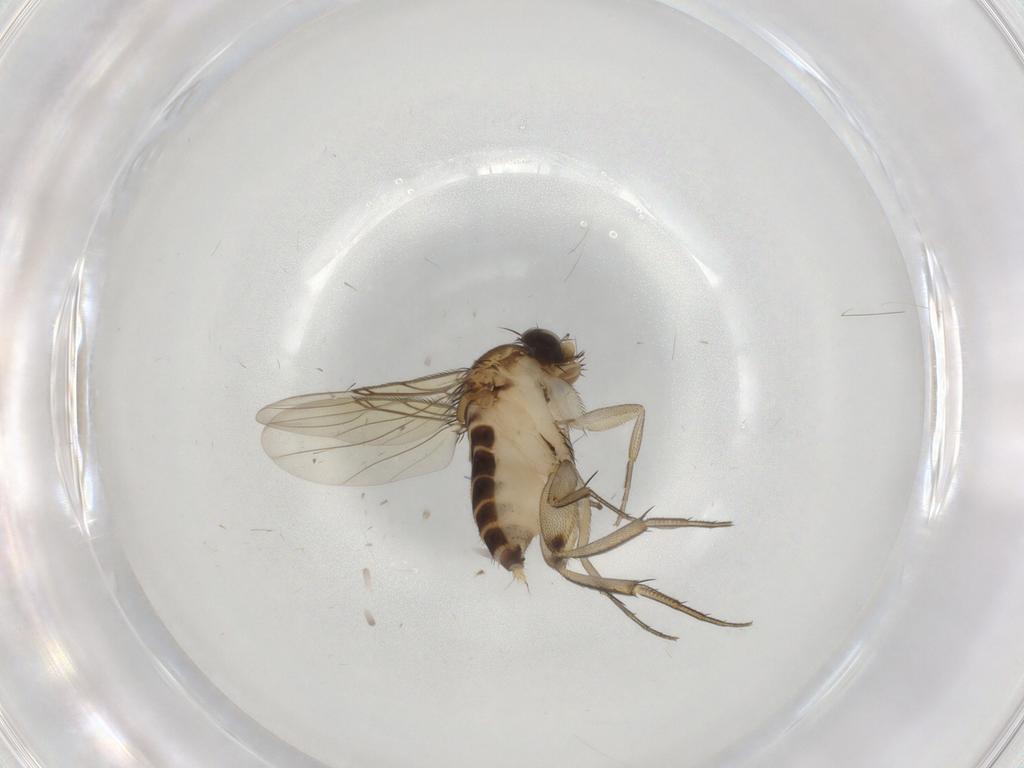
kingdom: Animalia
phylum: Arthropoda
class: Insecta
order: Diptera
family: Phoridae
